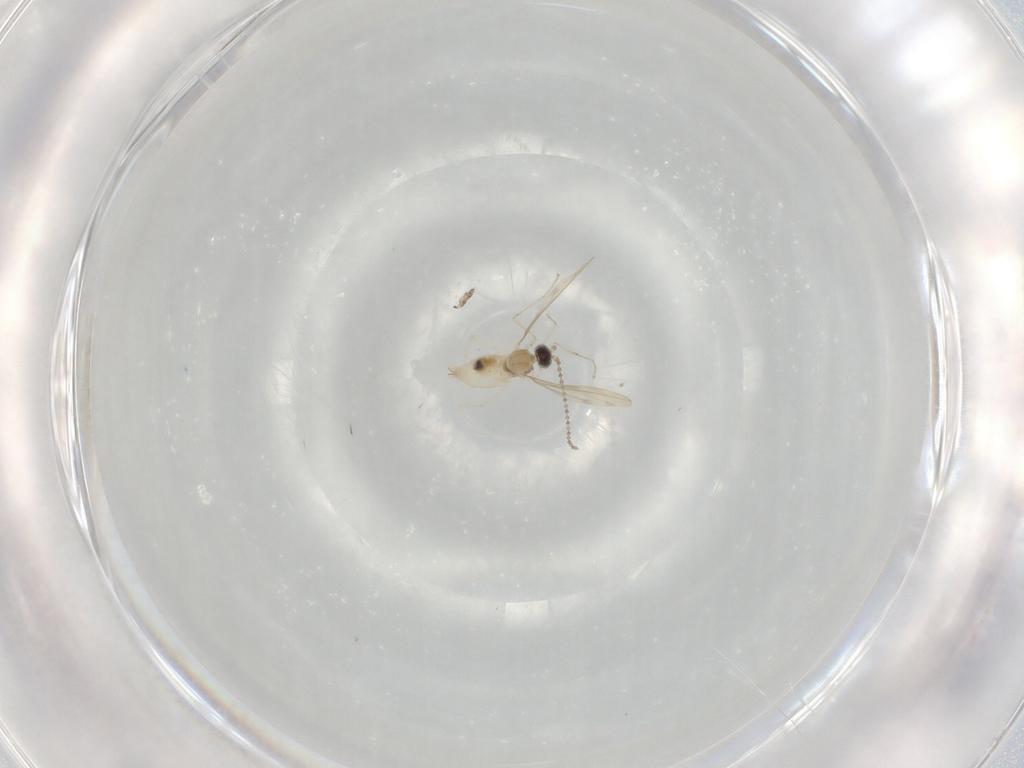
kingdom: Animalia
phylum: Arthropoda
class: Insecta
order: Diptera
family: Cecidomyiidae
